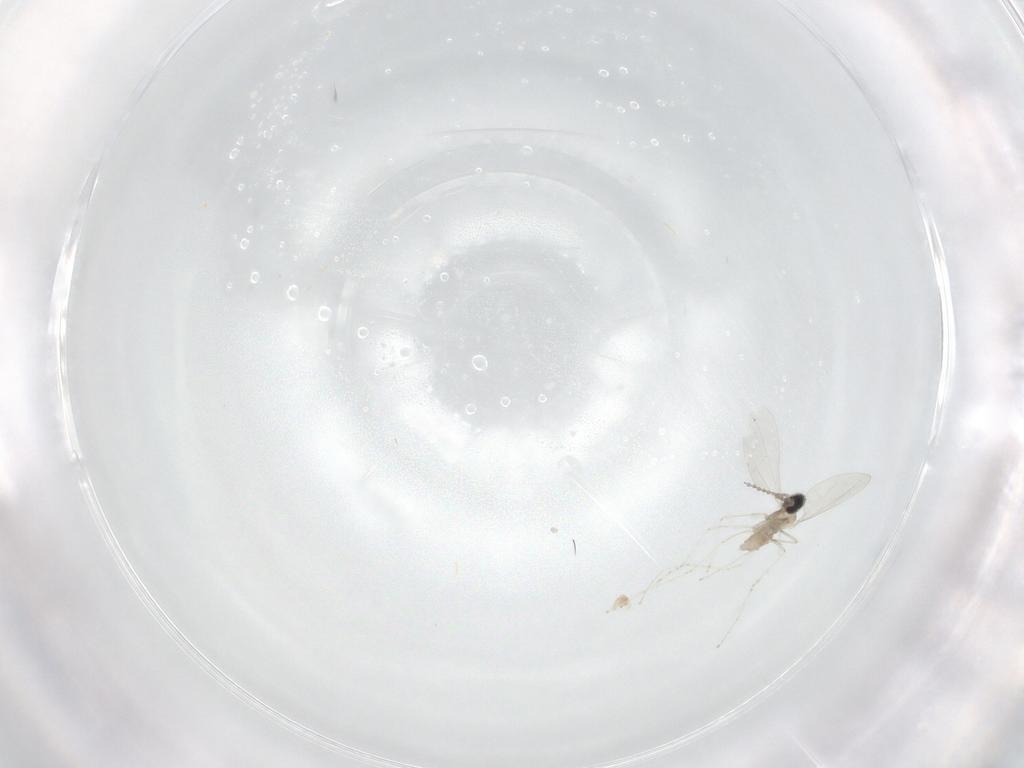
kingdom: Animalia
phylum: Arthropoda
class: Insecta
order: Diptera
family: Cecidomyiidae
